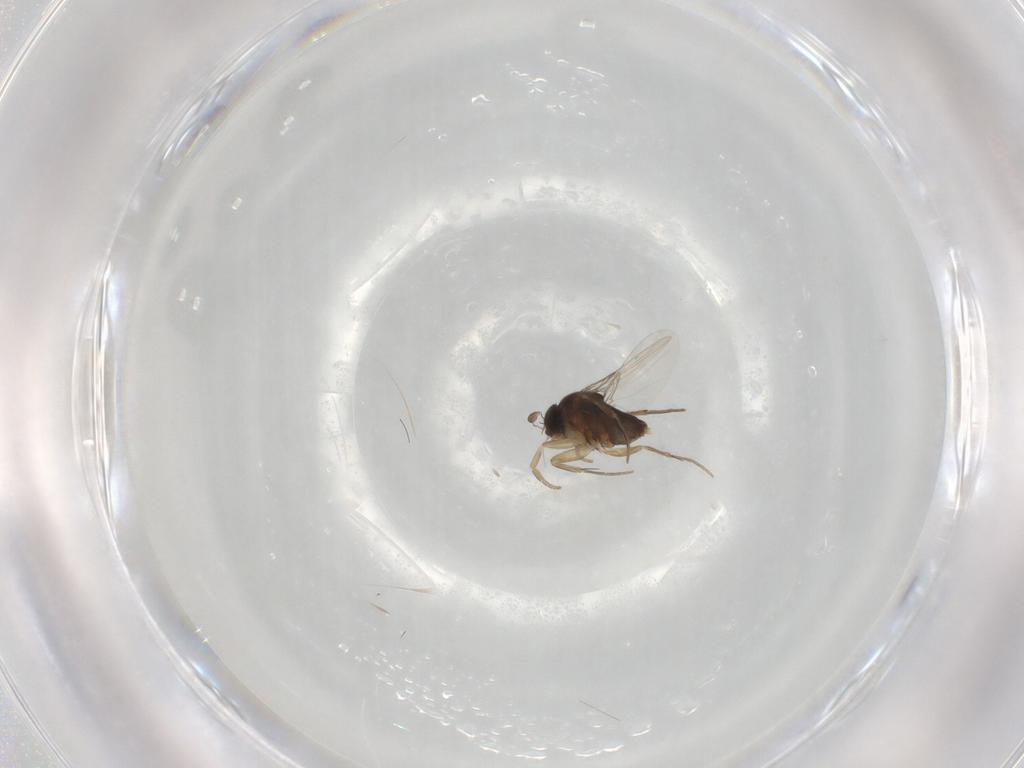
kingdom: Animalia
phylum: Arthropoda
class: Insecta
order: Diptera
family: Phoridae
